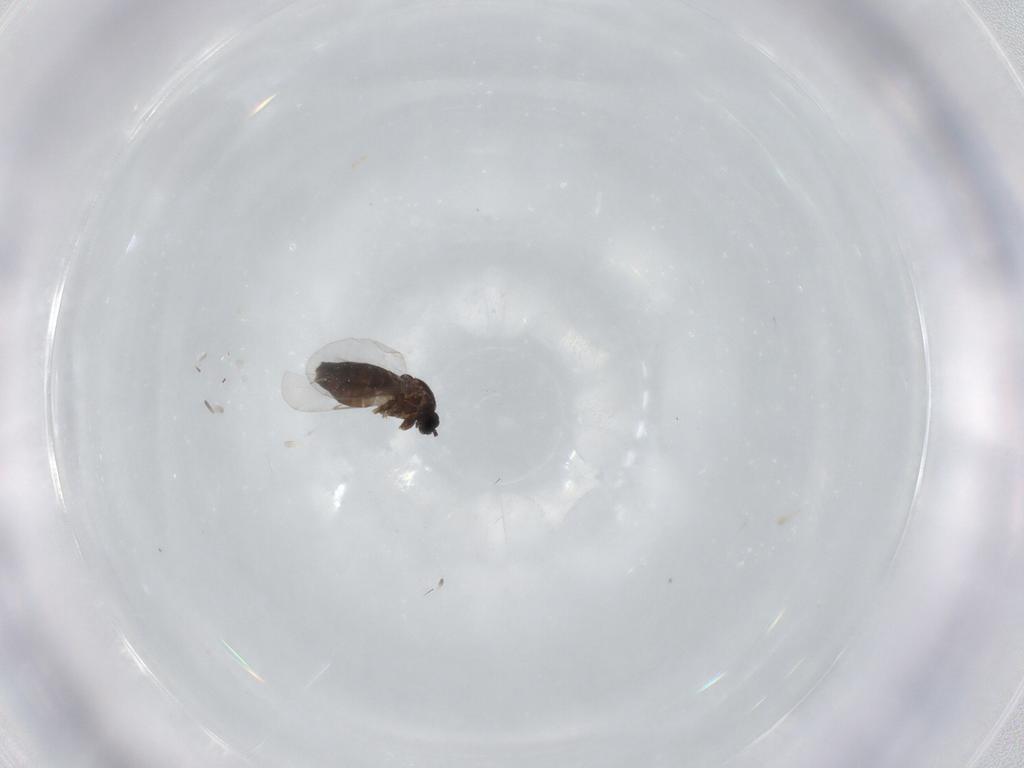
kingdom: Animalia
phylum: Arthropoda
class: Insecta
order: Diptera
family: Scatopsidae
